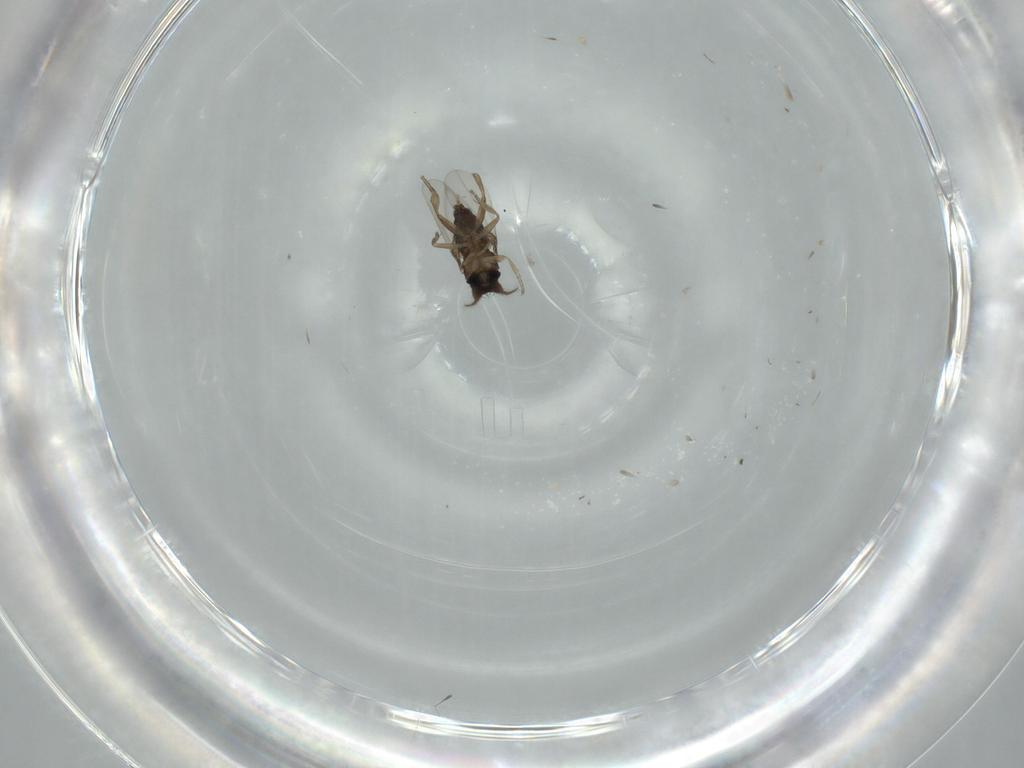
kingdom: Animalia
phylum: Arthropoda
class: Insecta
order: Diptera
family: Phoridae
